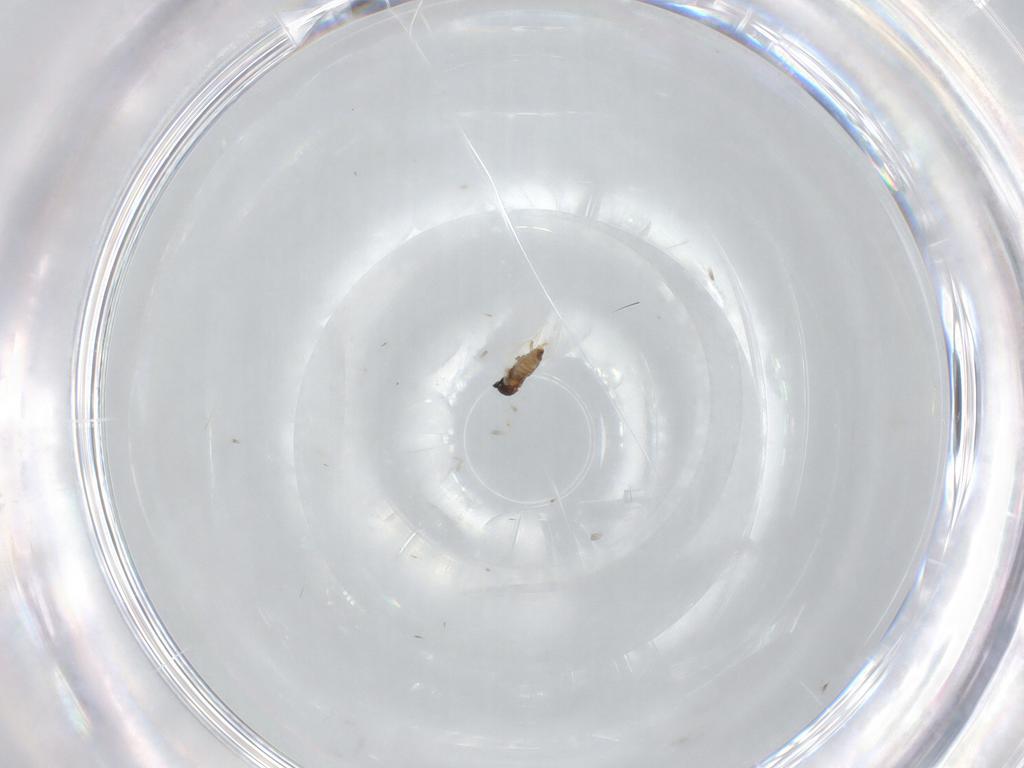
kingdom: Animalia
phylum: Arthropoda
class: Insecta
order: Diptera
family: Cecidomyiidae
